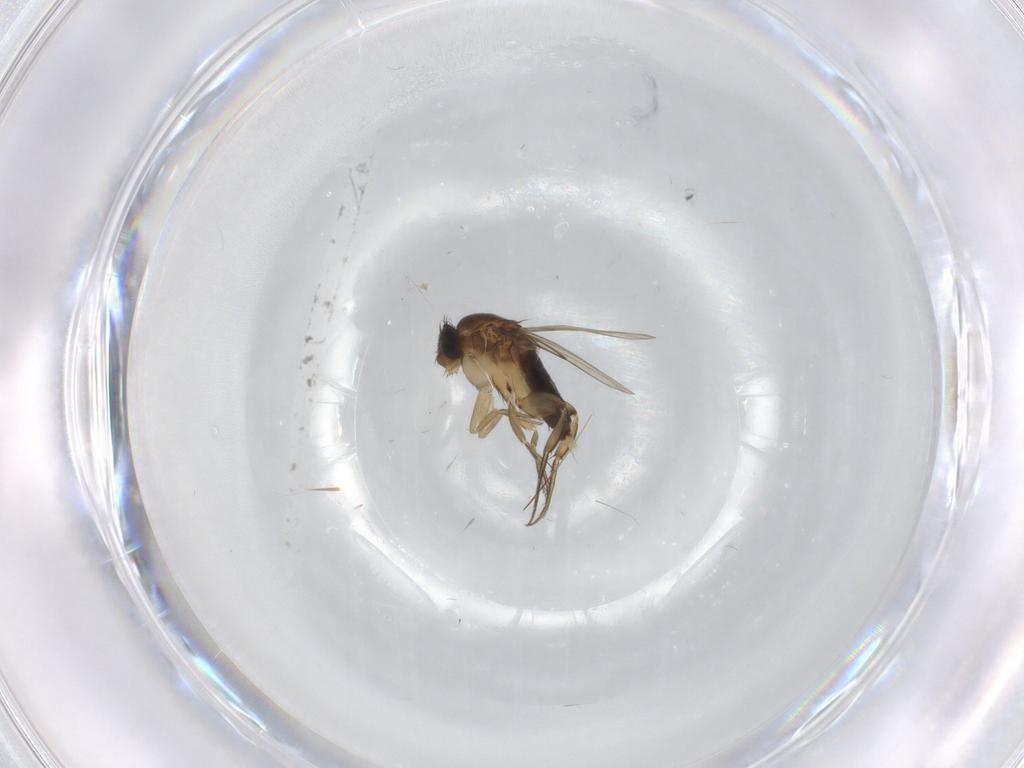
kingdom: Animalia
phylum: Arthropoda
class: Insecta
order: Diptera
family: Phoridae
